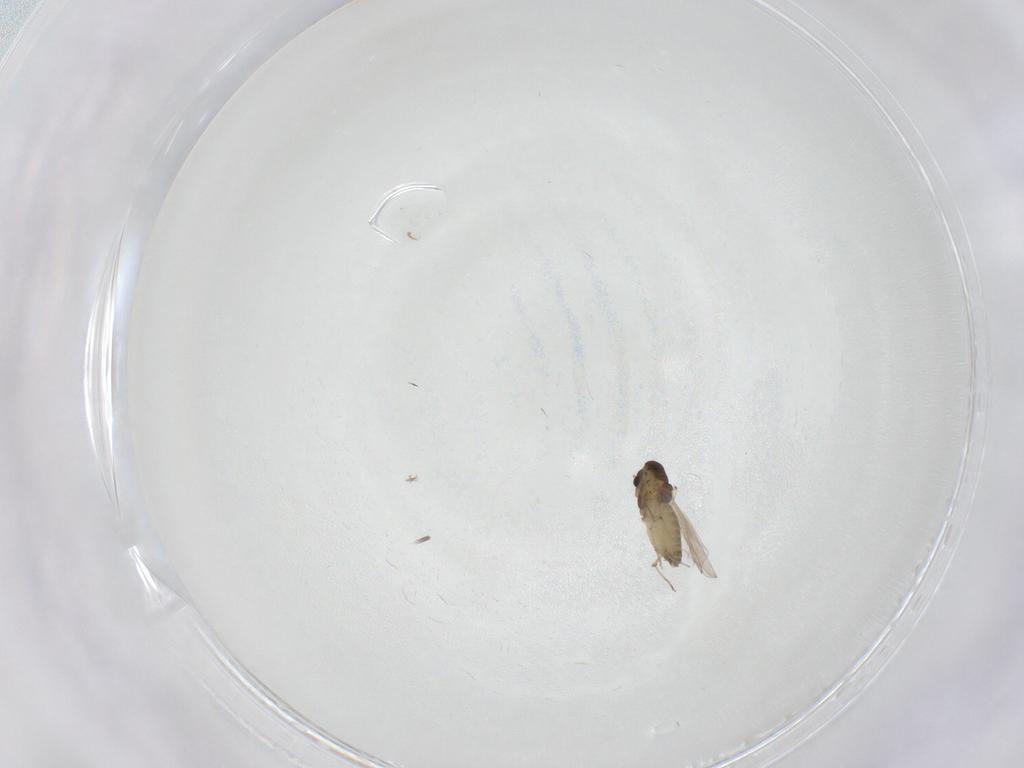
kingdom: Animalia
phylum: Arthropoda
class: Insecta
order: Diptera
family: Chironomidae
